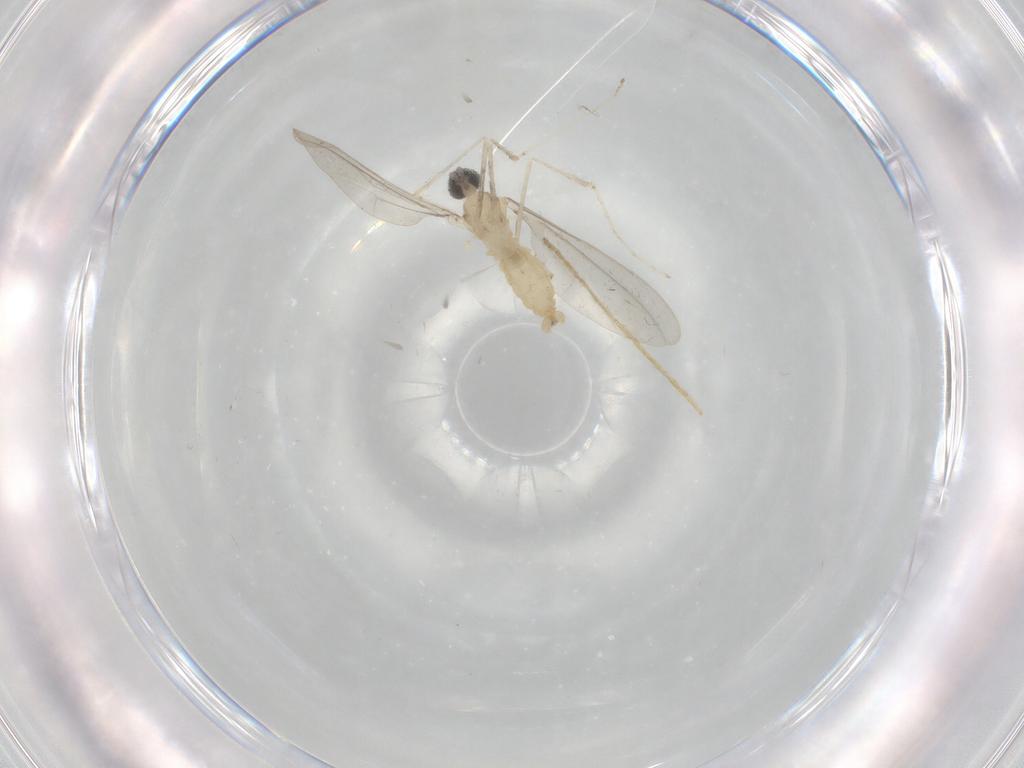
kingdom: Animalia
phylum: Arthropoda
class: Insecta
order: Diptera
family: Cecidomyiidae
